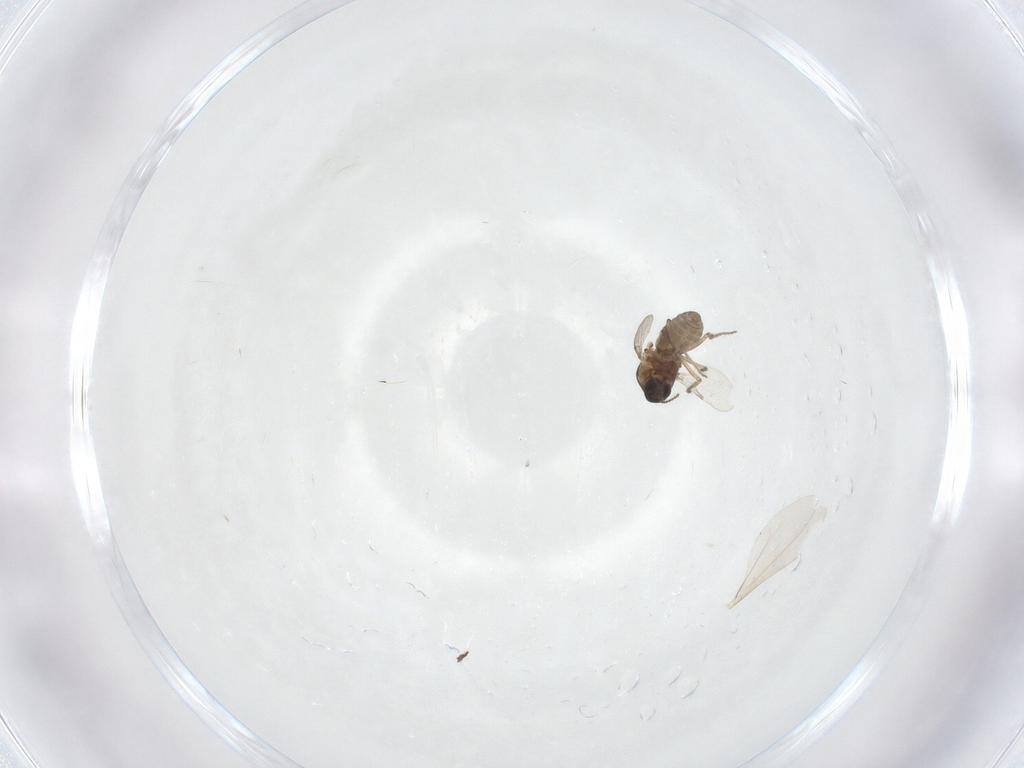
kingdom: Animalia
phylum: Arthropoda
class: Insecta
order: Diptera
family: Ceratopogonidae
